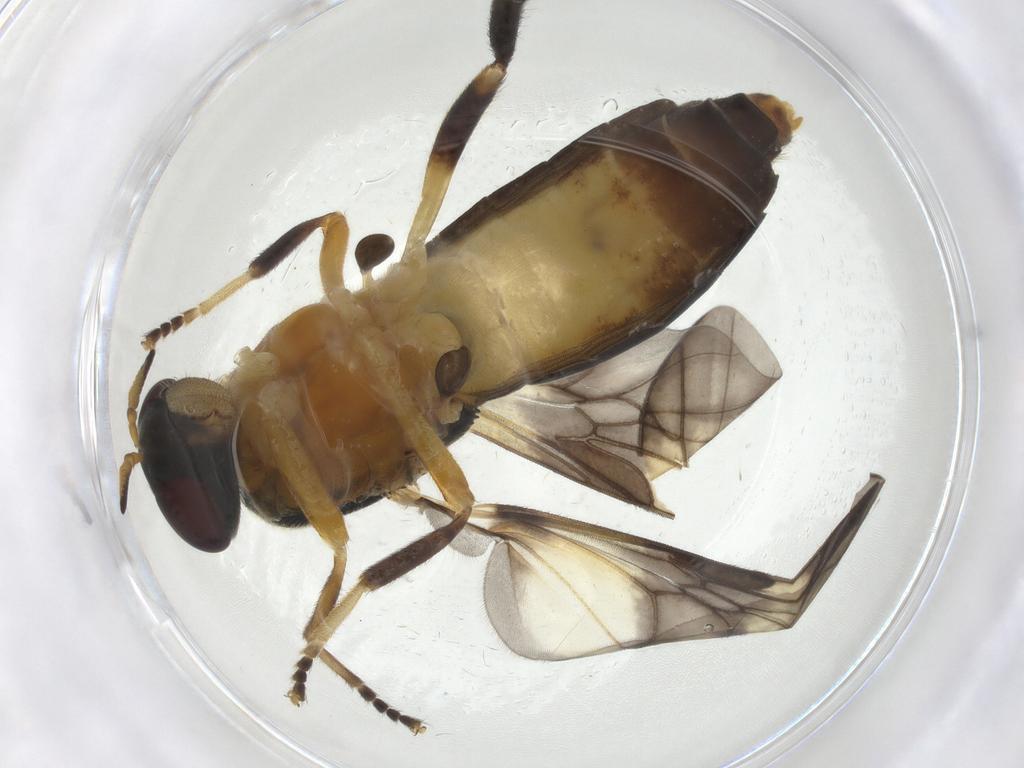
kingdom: Animalia
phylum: Arthropoda
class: Insecta
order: Diptera
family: Stratiomyidae
